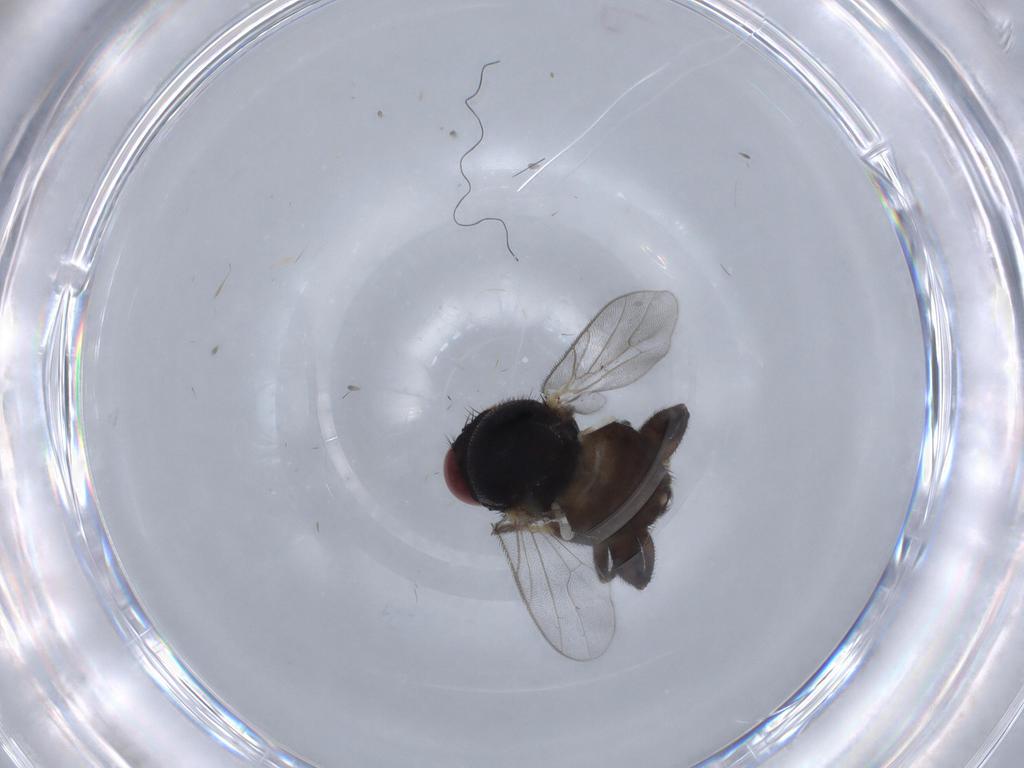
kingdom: Animalia
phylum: Arthropoda
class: Insecta
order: Diptera
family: Chloropidae
